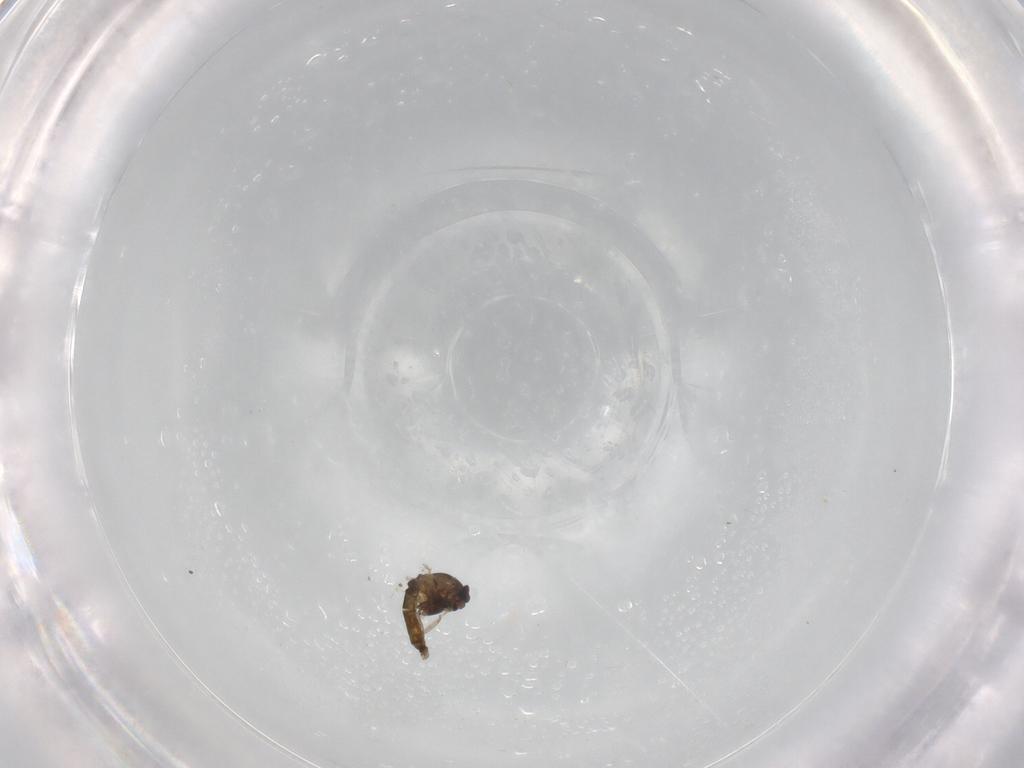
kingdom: Animalia
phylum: Arthropoda
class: Insecta
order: Diptera
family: Chironomidae
